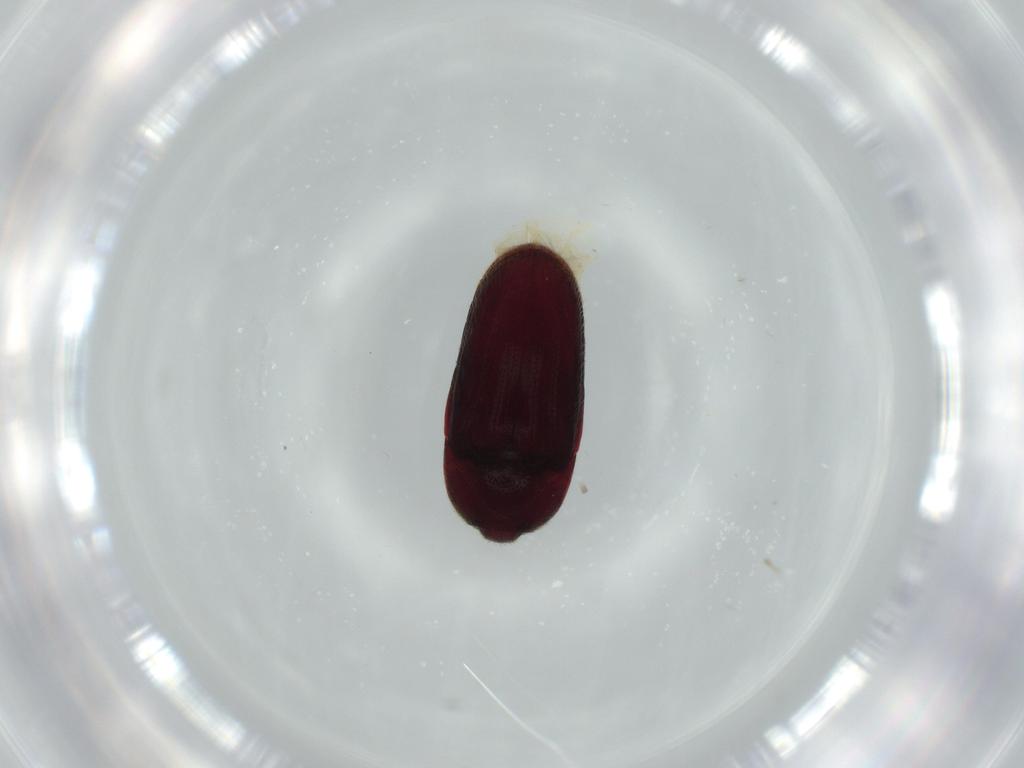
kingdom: Animalia
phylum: Arthropoda
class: Insecta
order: Coleoptera
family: Throscidae
